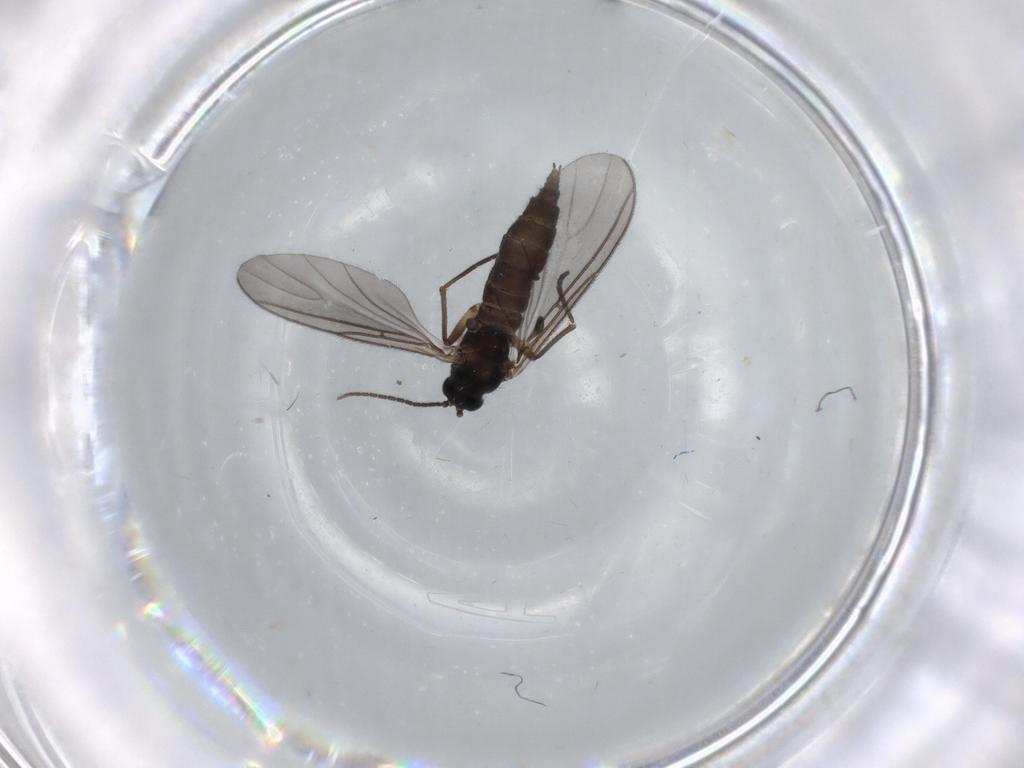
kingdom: Animalia
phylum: Arthropoda
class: Insecta
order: Diptera
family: Sciaridae
